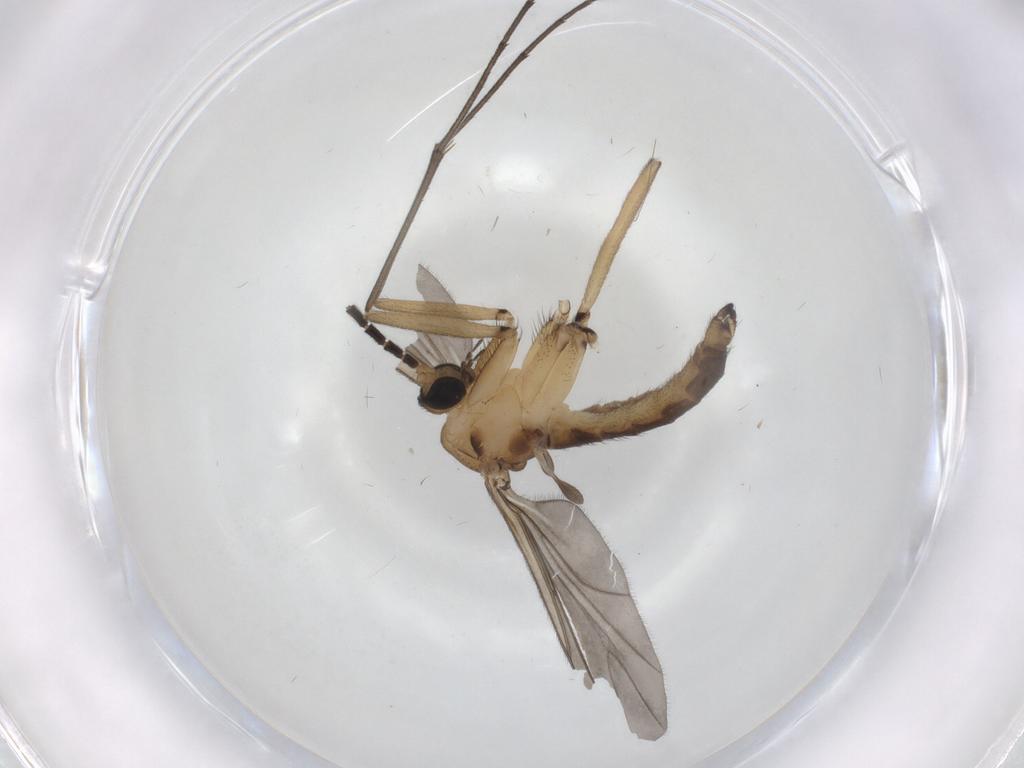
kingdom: Animalia
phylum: Arthropoda
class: Insecta
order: Diptera
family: Sciaridae
